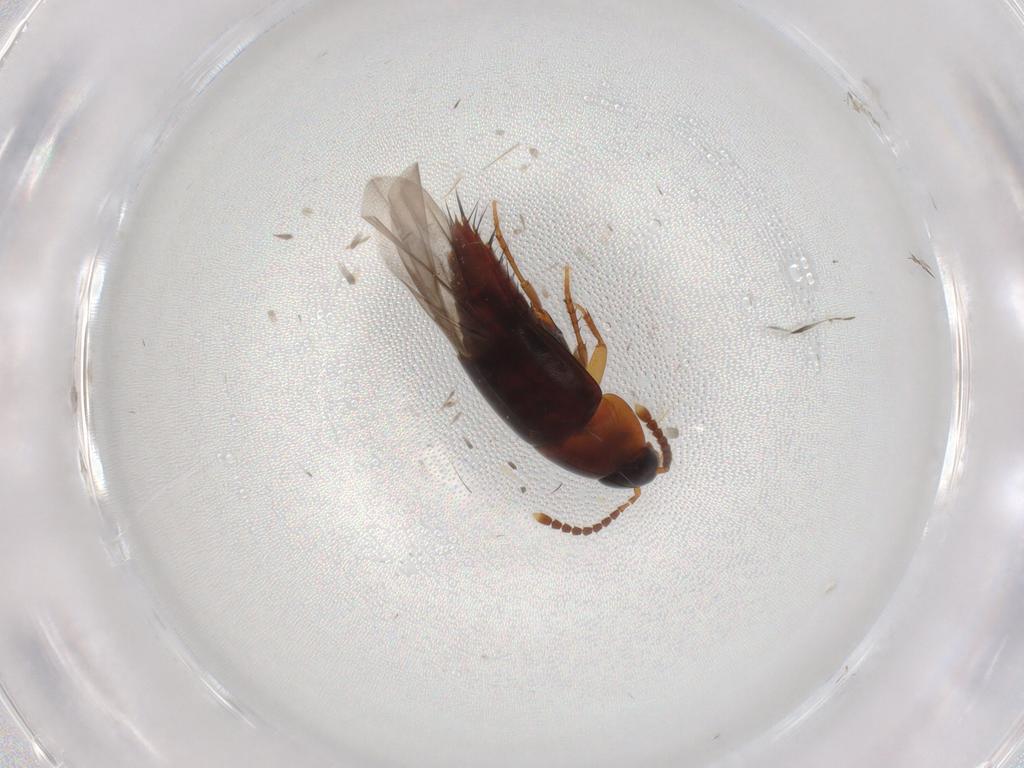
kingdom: Animalia
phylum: Arthropoda
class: Insecta
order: Coleoptera
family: Staphylinidae
